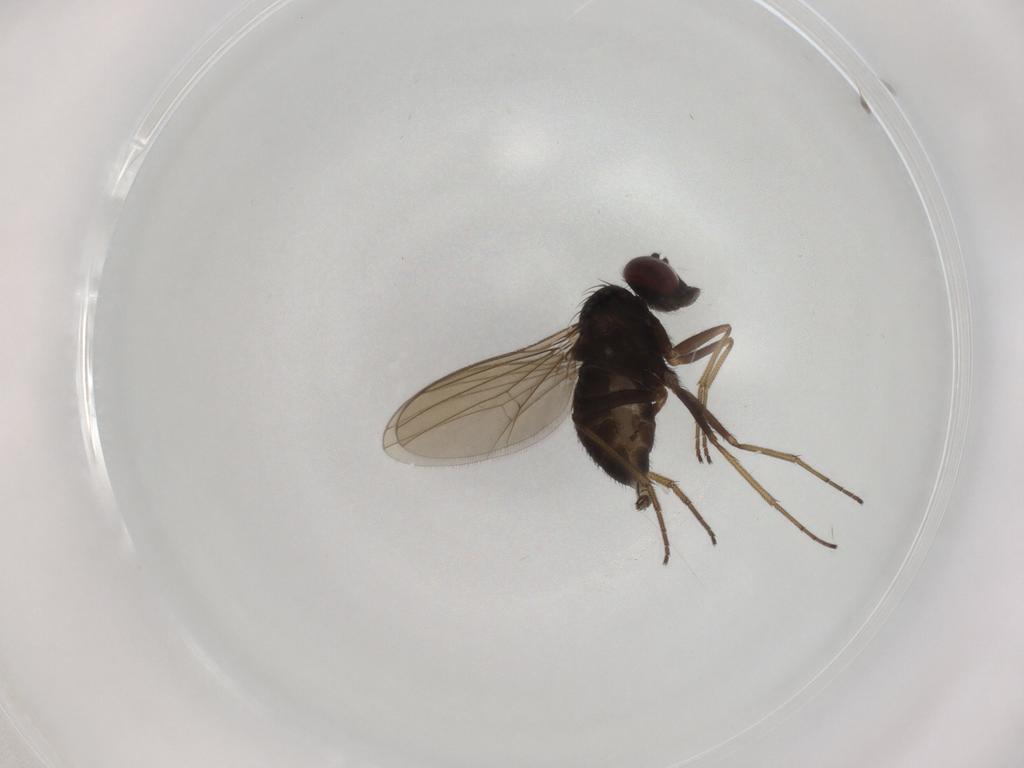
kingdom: Animalia
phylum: Arthropoda
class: Insecta
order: Diptera
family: Dolichopodidae
